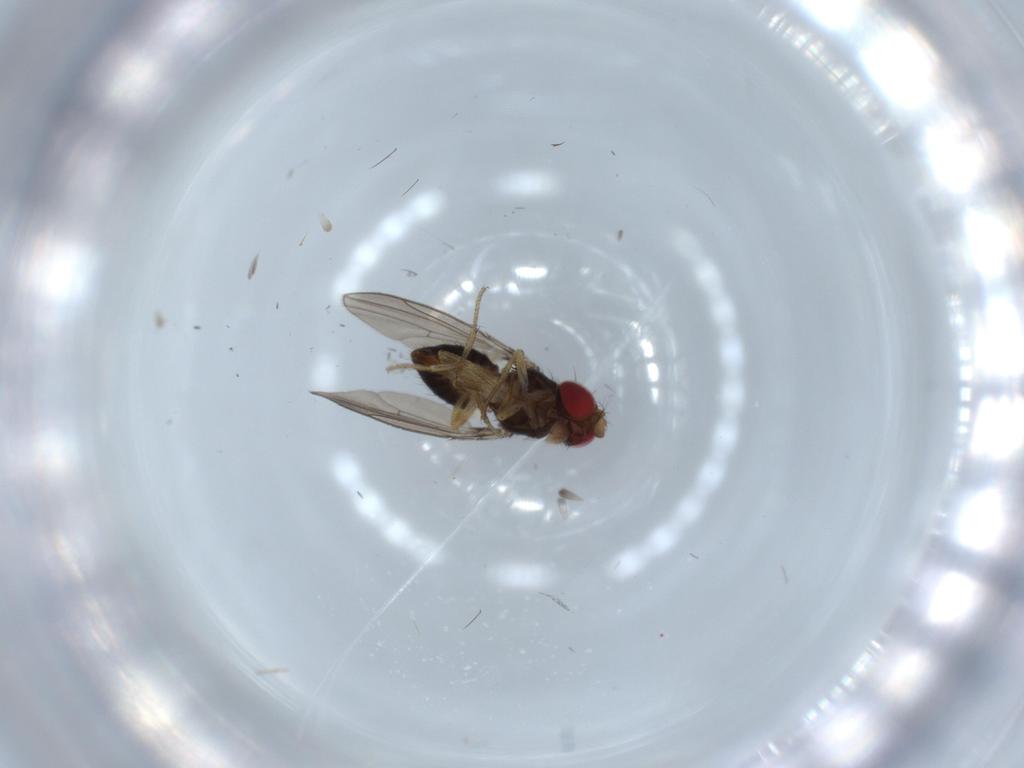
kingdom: Animalia
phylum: Arthropoda
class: Insecta
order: Diptera
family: Drosophilidae
